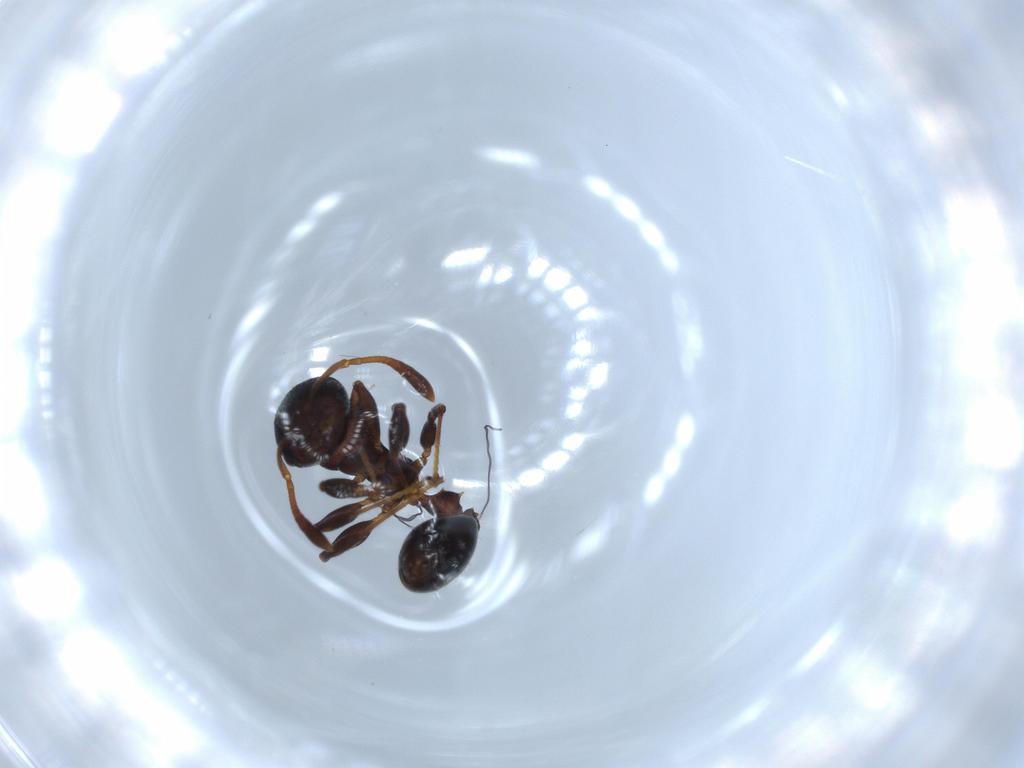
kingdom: Animalia
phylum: Arthropoda
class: Insecta
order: Hymenoptera
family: Formicidae
